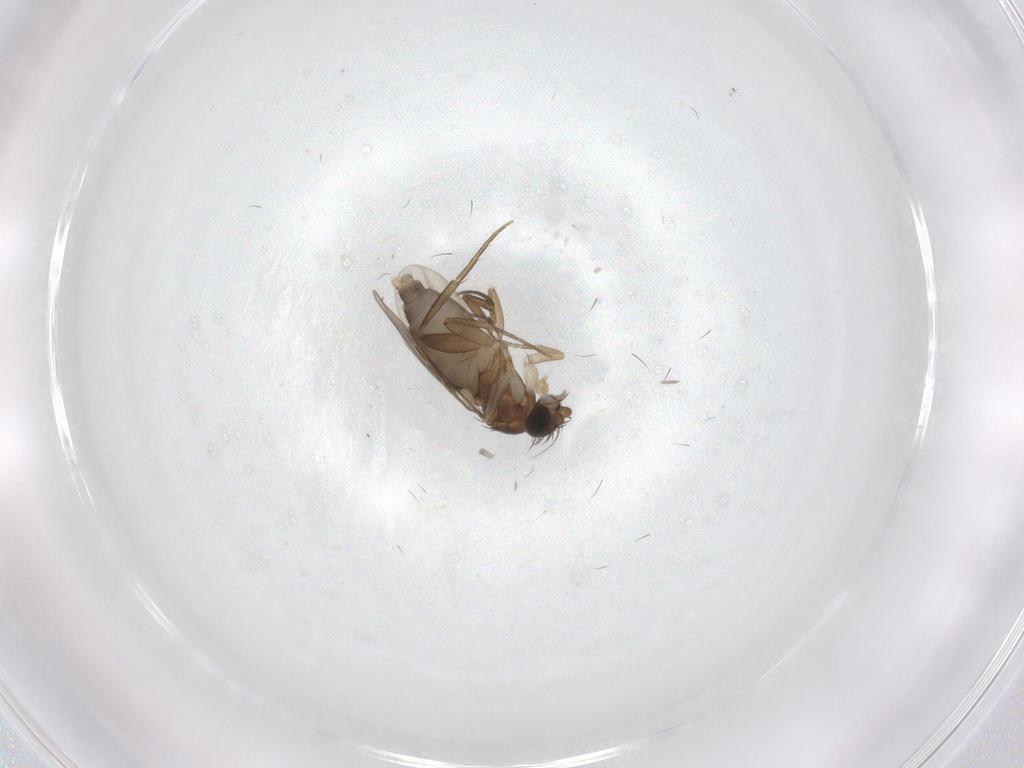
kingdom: Animalia
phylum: Arthropoda
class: Insecta
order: Diptera
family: Phoridae
